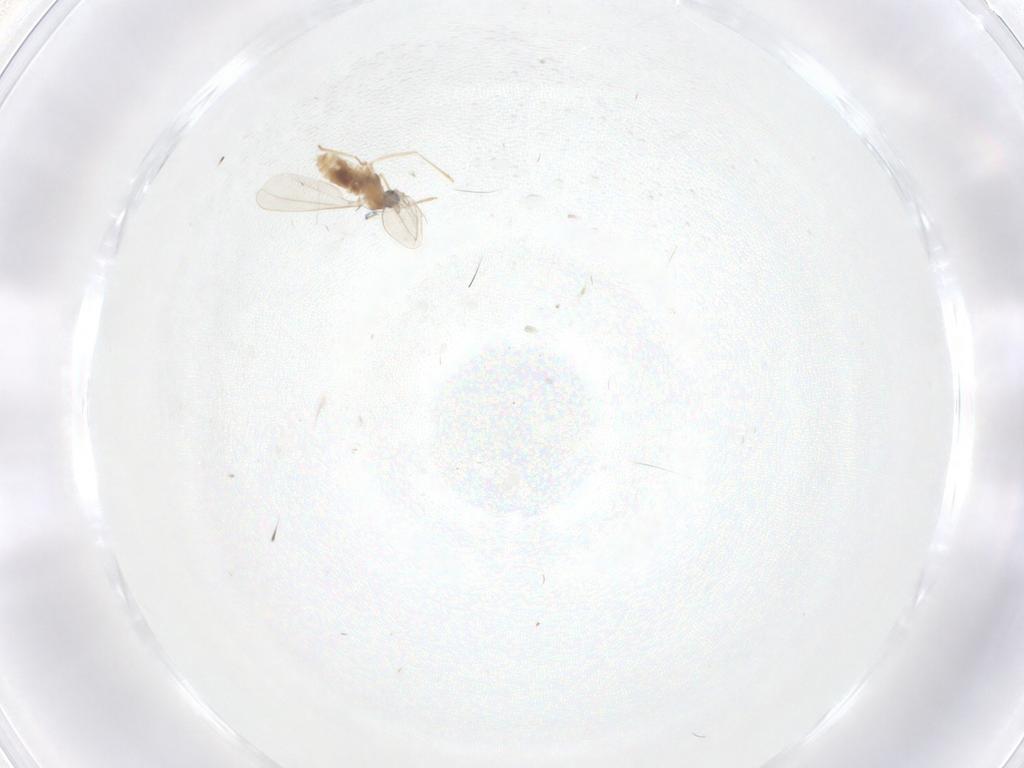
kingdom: Animalia
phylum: Arthropoda
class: Insecta
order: Diptera
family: Cecidomyiidae
